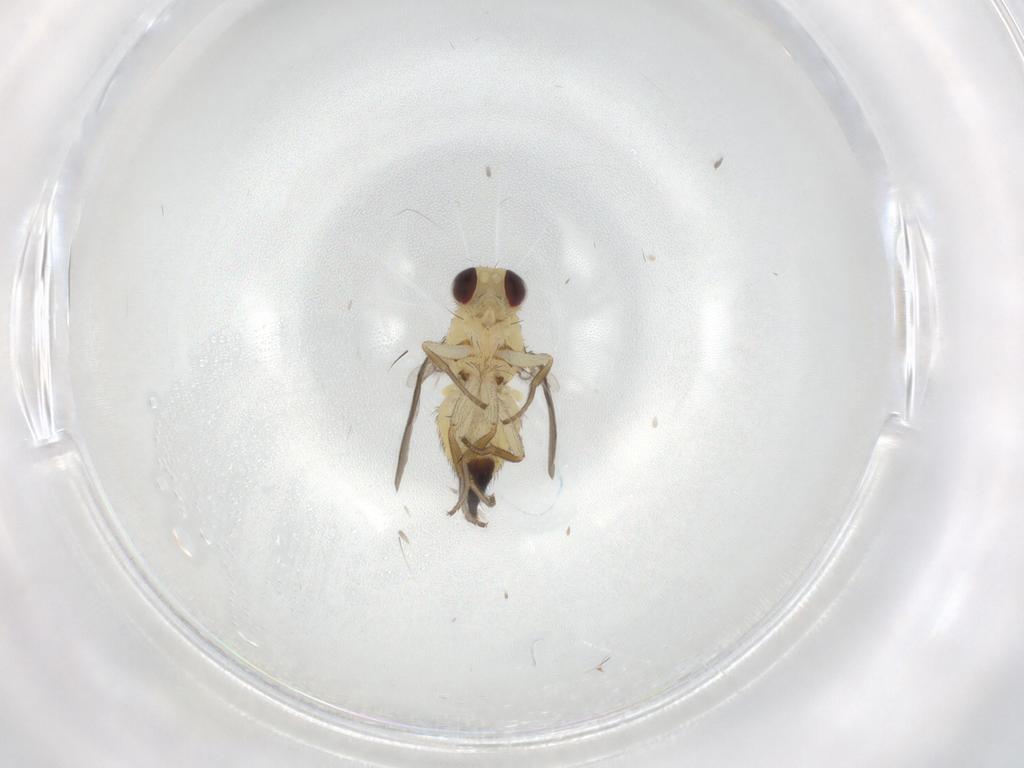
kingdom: Animalia
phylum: Arthropoda
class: Insecta
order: Diptera
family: Agromyzidae
